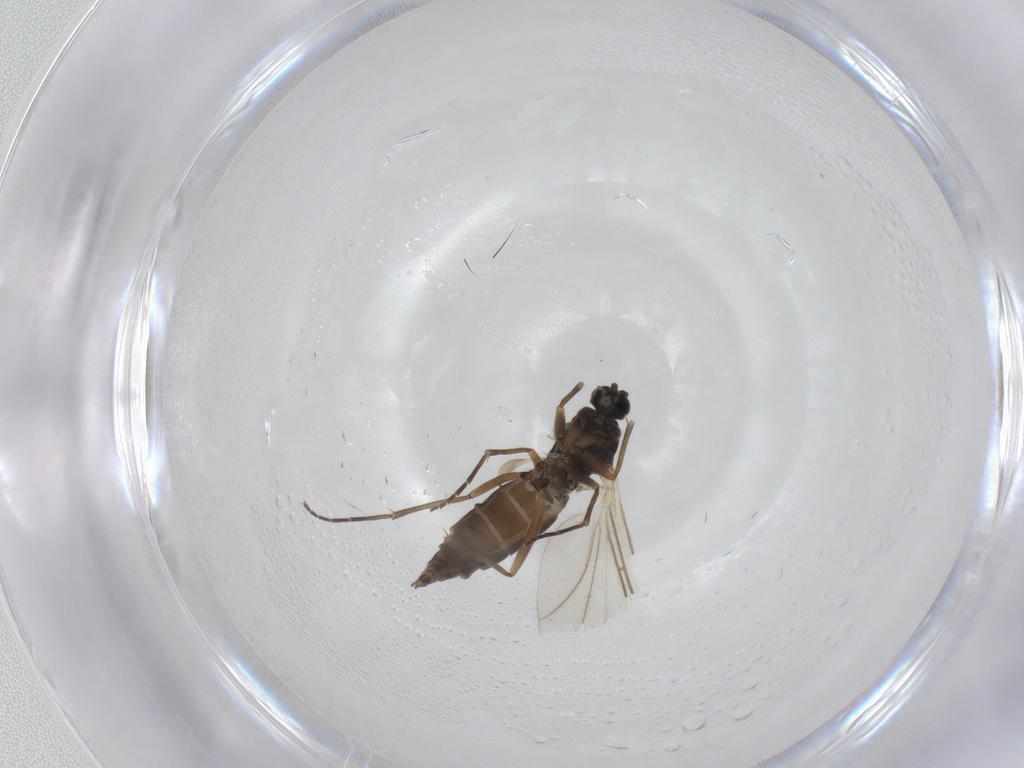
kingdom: Animalia
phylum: Arthropoda
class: Insecta
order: Diptera
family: Sciaridae
